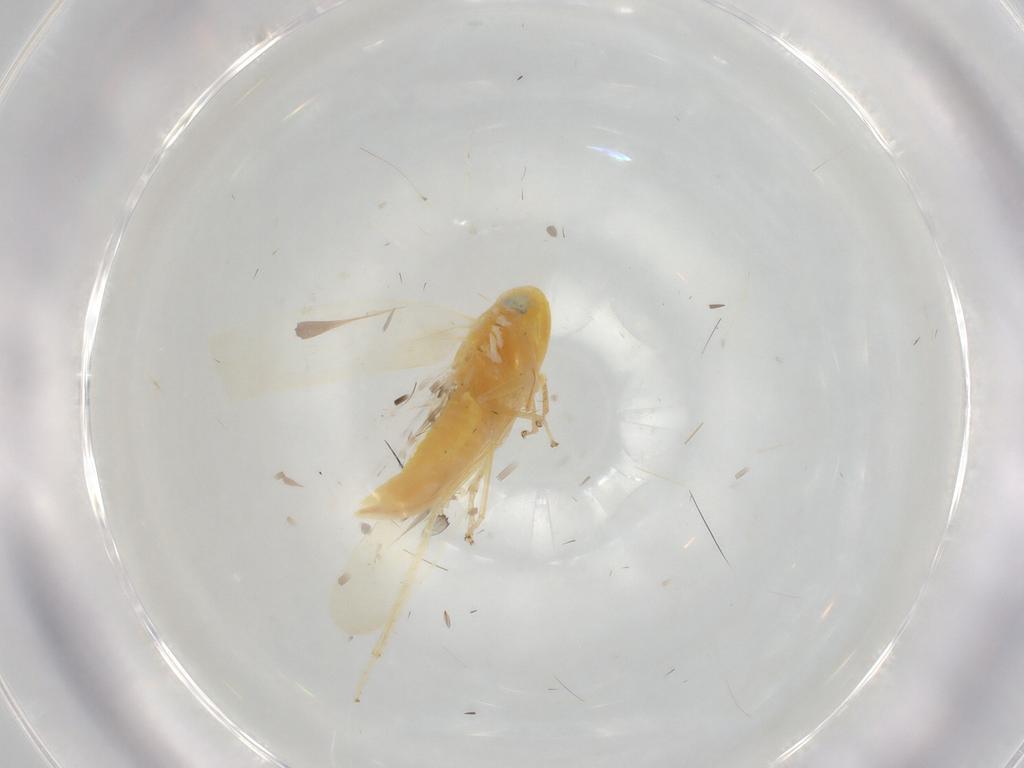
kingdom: Animalia
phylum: Arthropoda
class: Insecta
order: Hemiptera
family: Cicadellidae
